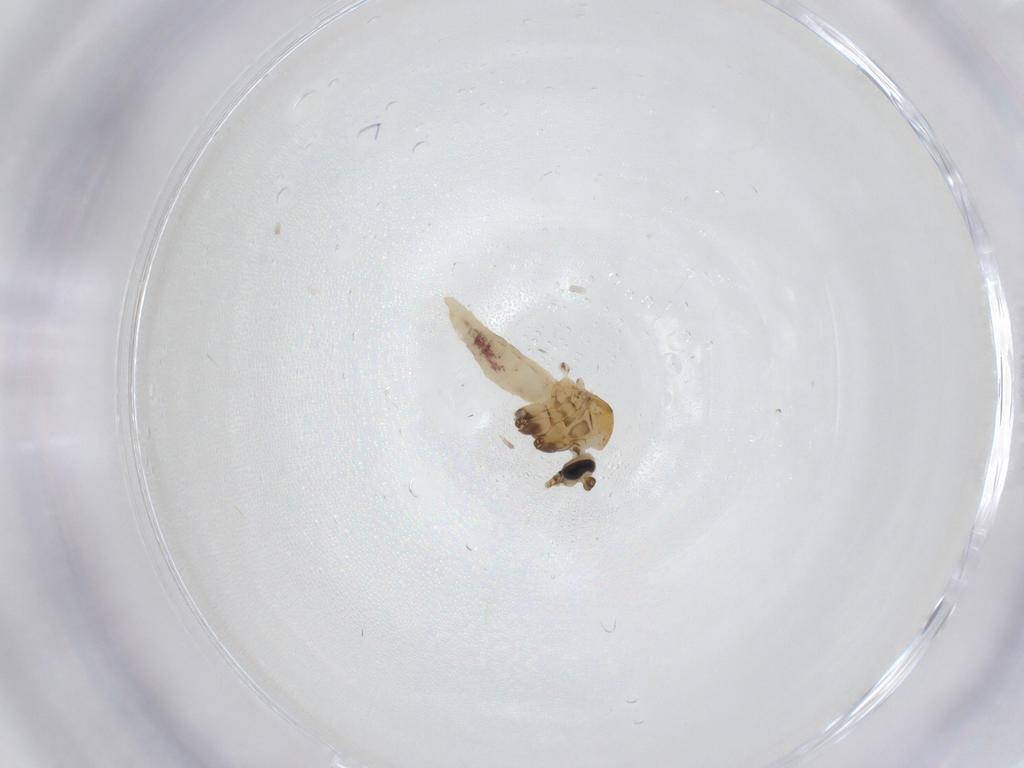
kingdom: Animalia
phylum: Arthropoda
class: Insecta
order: Diptera
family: Ceratopogonidae
